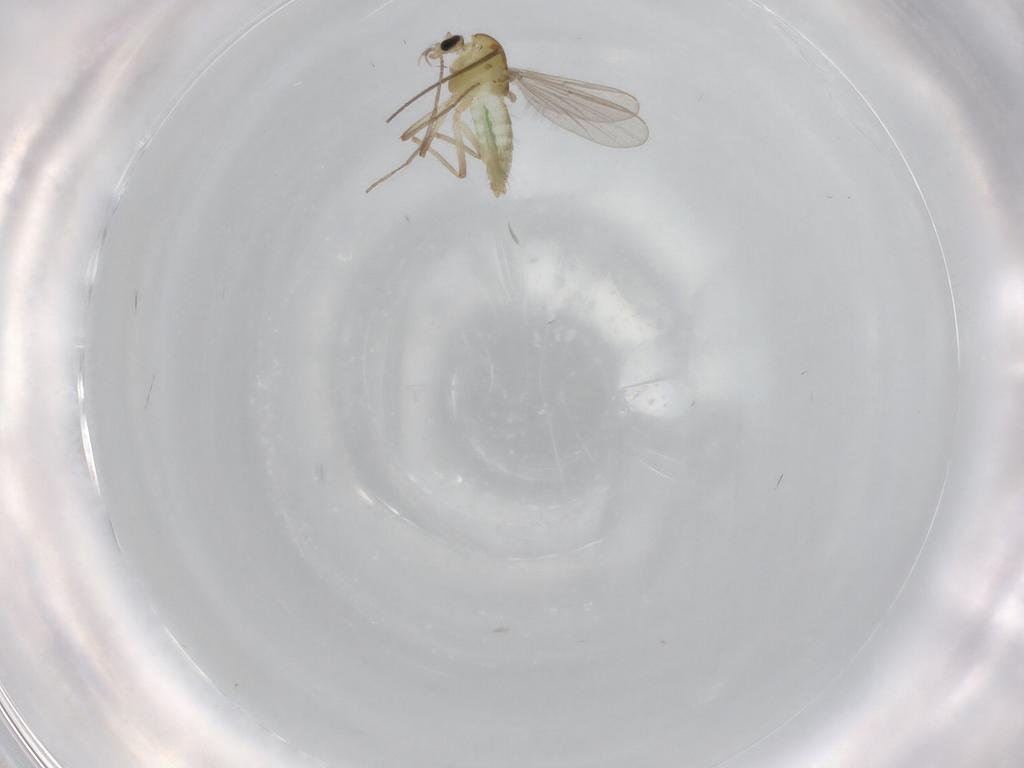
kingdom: Animalia
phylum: Arthropoda
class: Insecta
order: Diptera
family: Chironomidae
